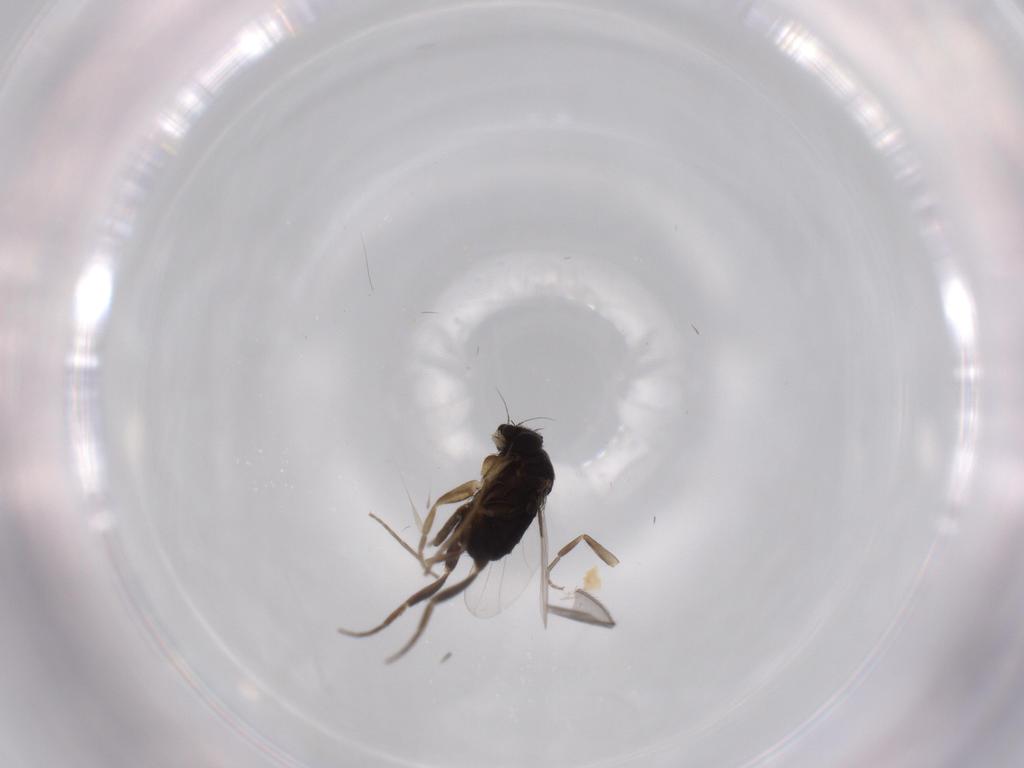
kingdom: Animalia
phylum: Arthropoda
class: Insecta
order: Diptera
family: Phoridae
